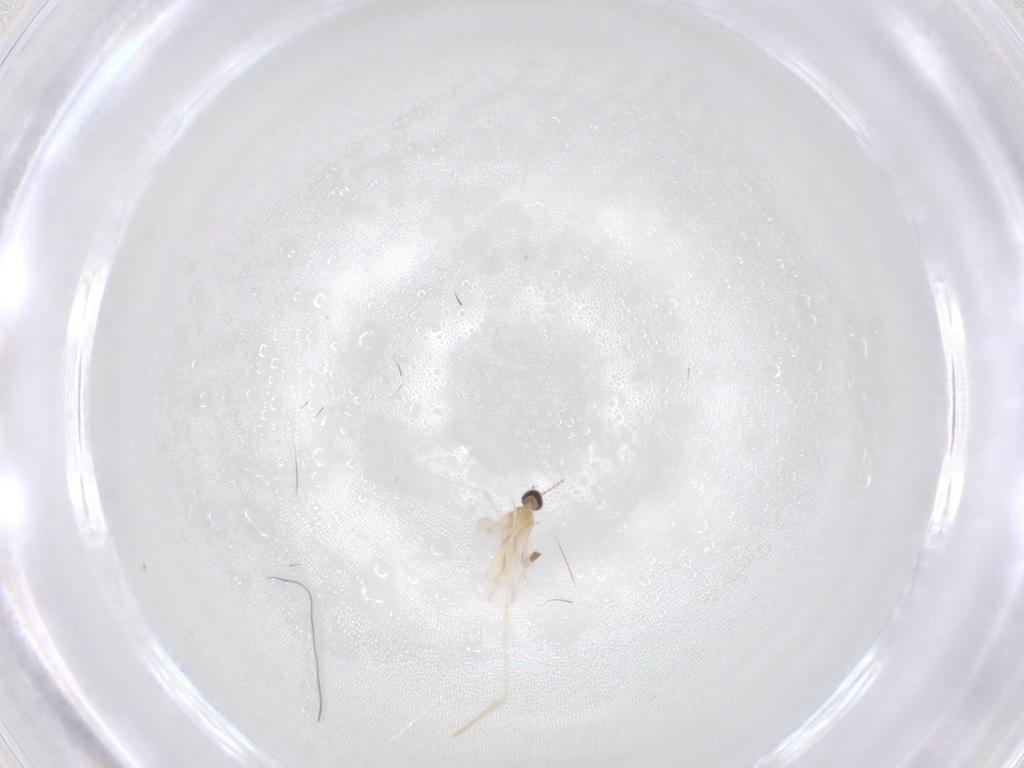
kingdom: Animalia
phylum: Arthropoda
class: Insecta
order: Diptera
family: Cecidomyiidae
